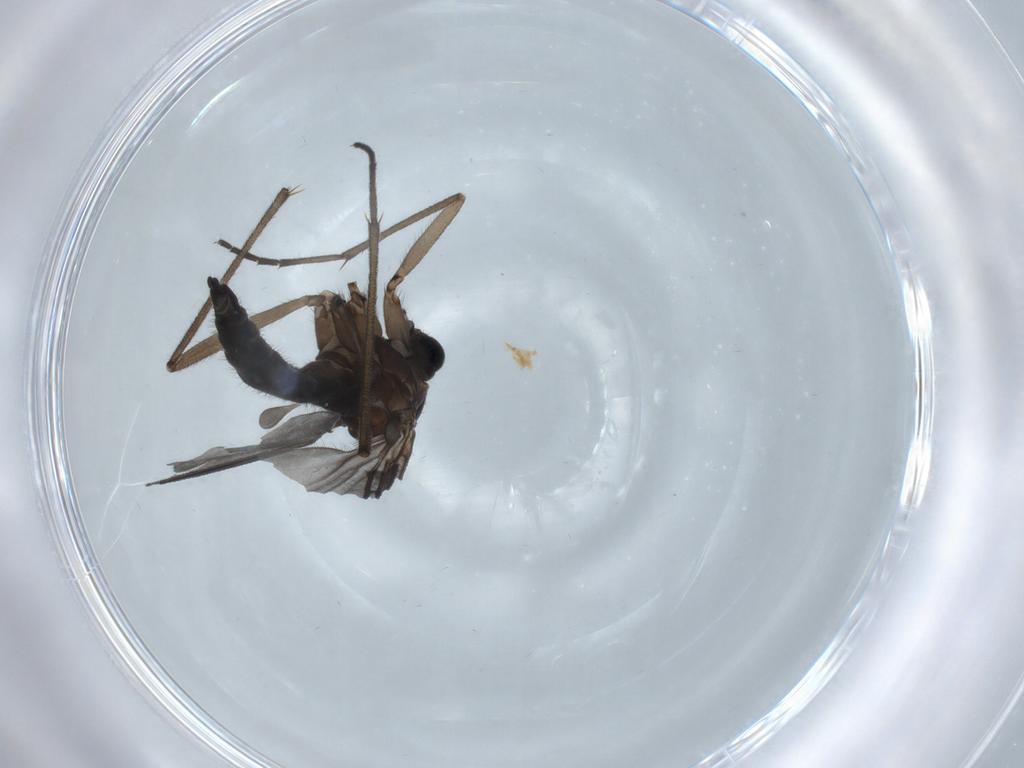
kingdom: Animalia
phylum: Arthropoda
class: Insecta
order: Diptera
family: Sciaridae
